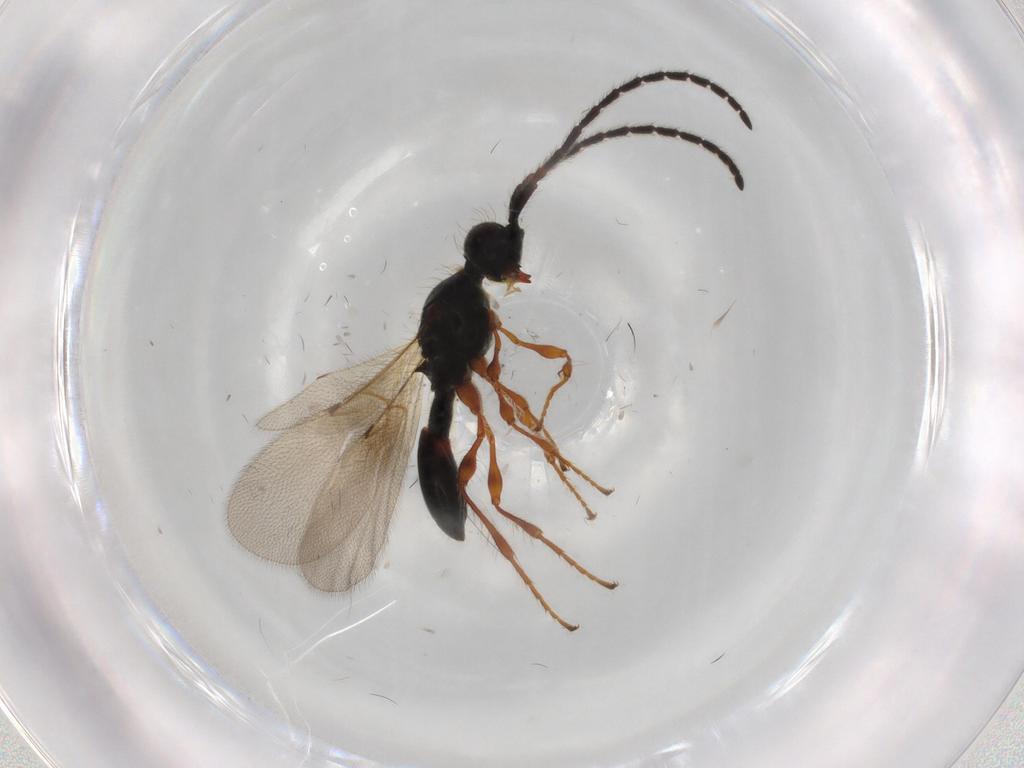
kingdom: Animalia
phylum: Arthropoda
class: Insecta
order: Hymenoptera
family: Diapriidae
